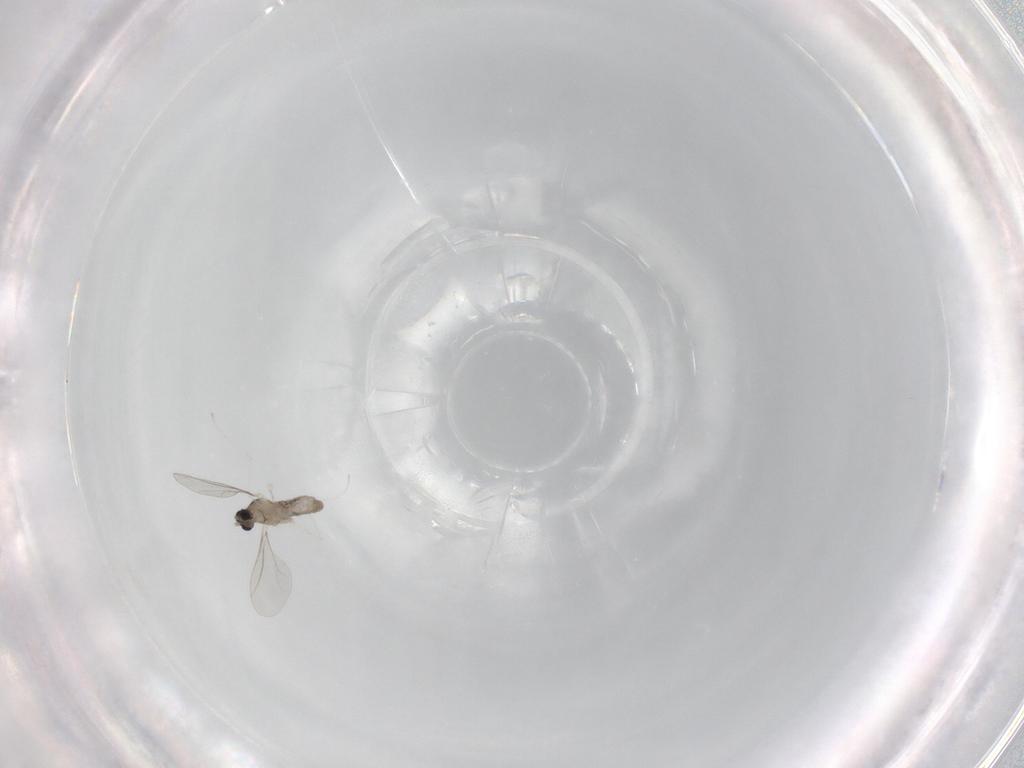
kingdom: Animalia
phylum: Arthropoda
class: Insecta
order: Diptera
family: Cecidomyiidae
